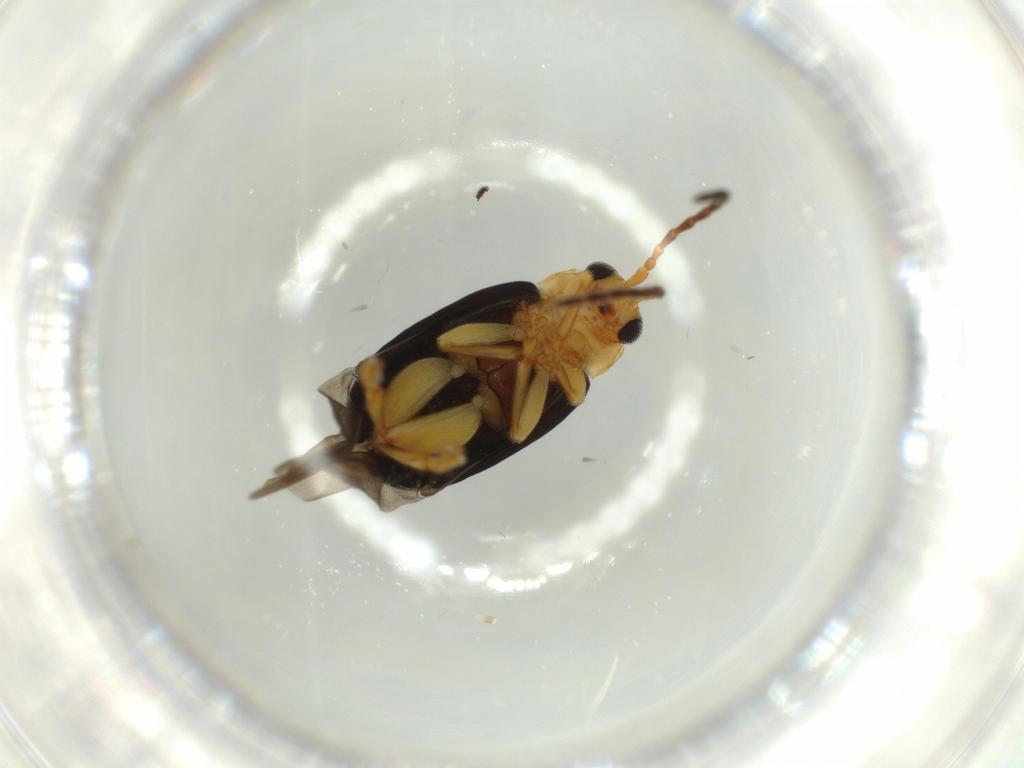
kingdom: Animalia
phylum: Arthropoda
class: Insecta
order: Coleoptera
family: Chrysomelidae
